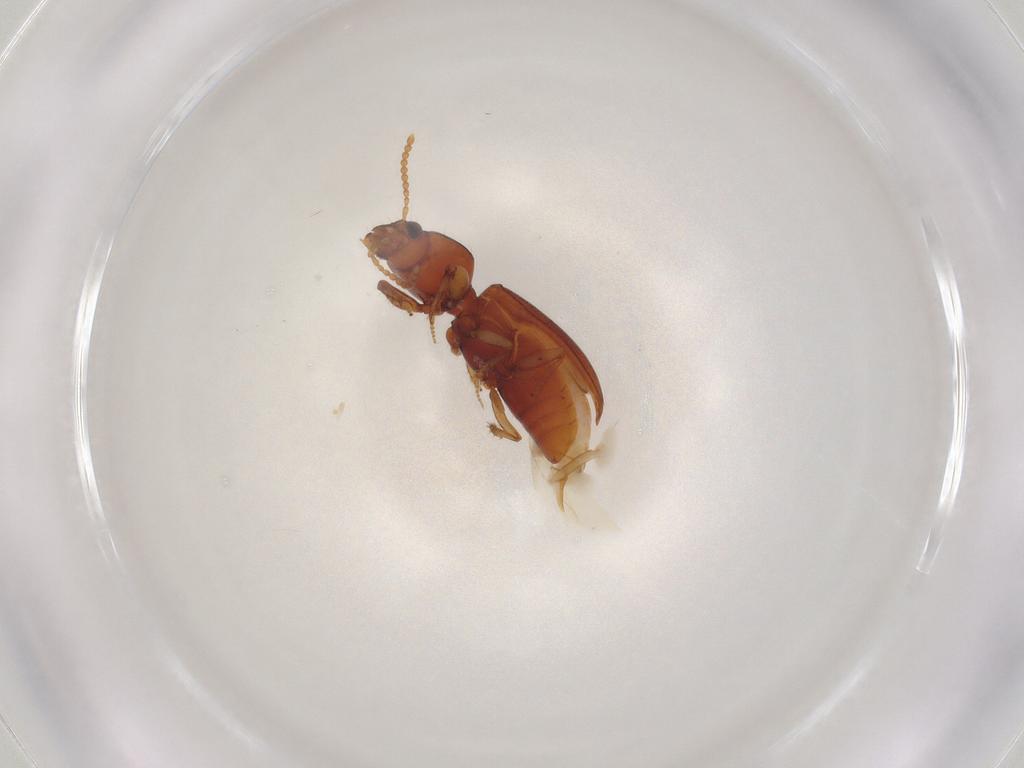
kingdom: Animalia
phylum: Arthropoda
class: Insecta
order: Coleoptera
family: Carabidae
